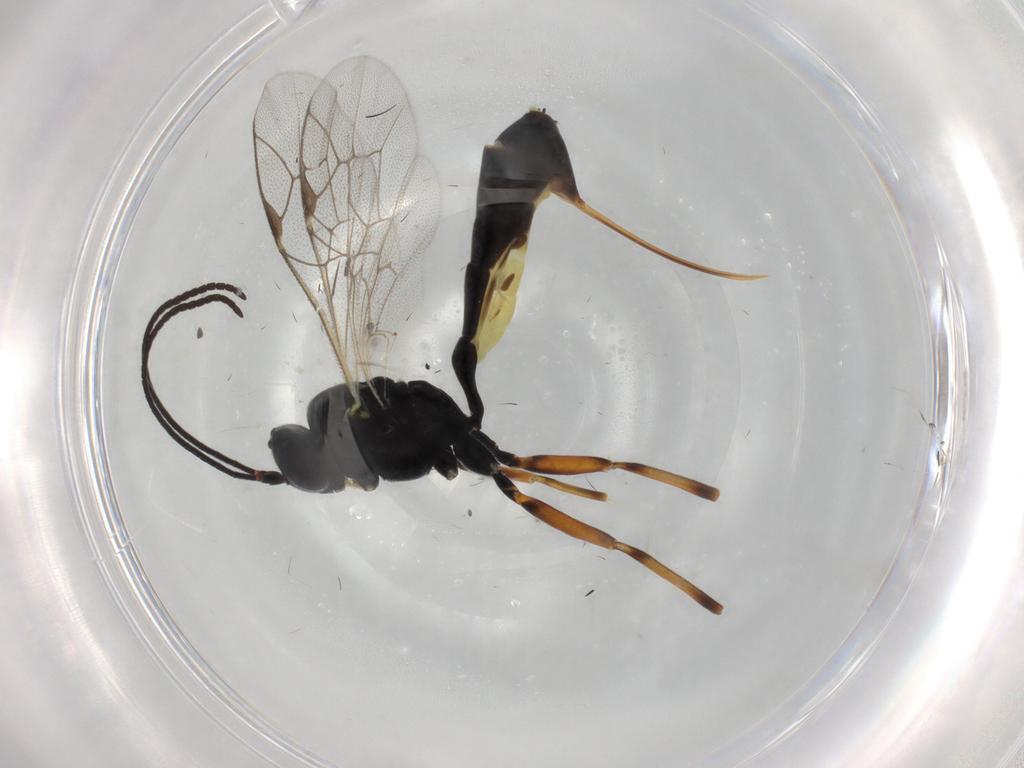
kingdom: Animalia
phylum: Arthropoda
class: Insecta
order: Hymenoptera
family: Ichneumonidae
